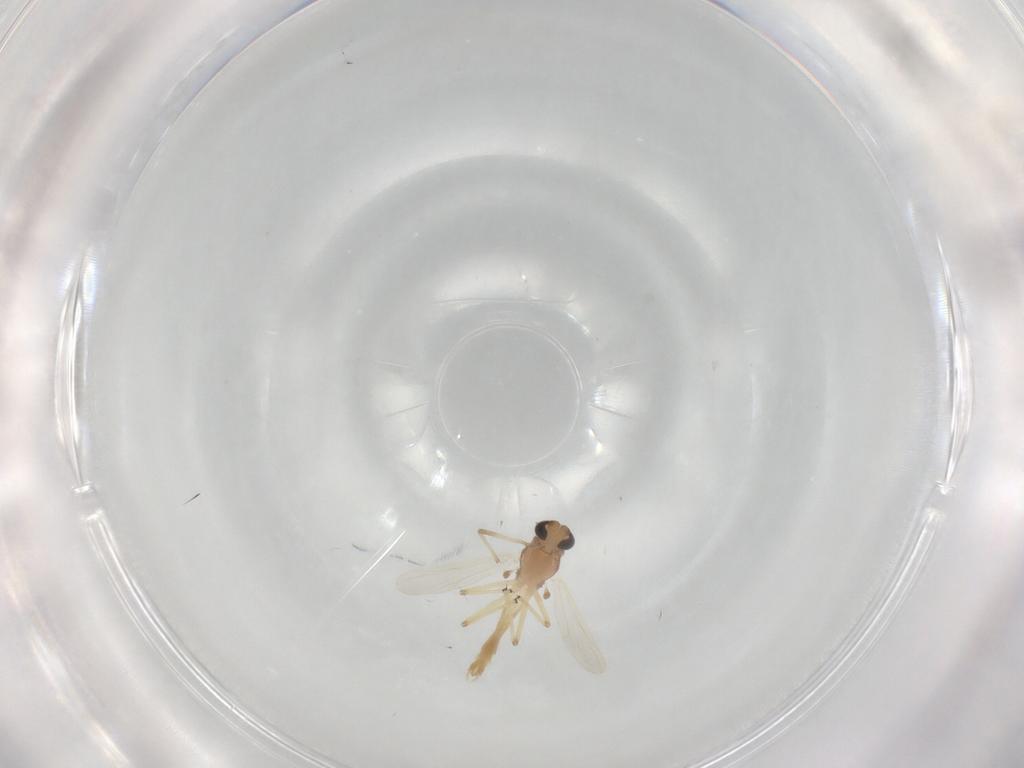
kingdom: Animalia
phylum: Arthropoda
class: Insecta
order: Diptera
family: Chironomidae
